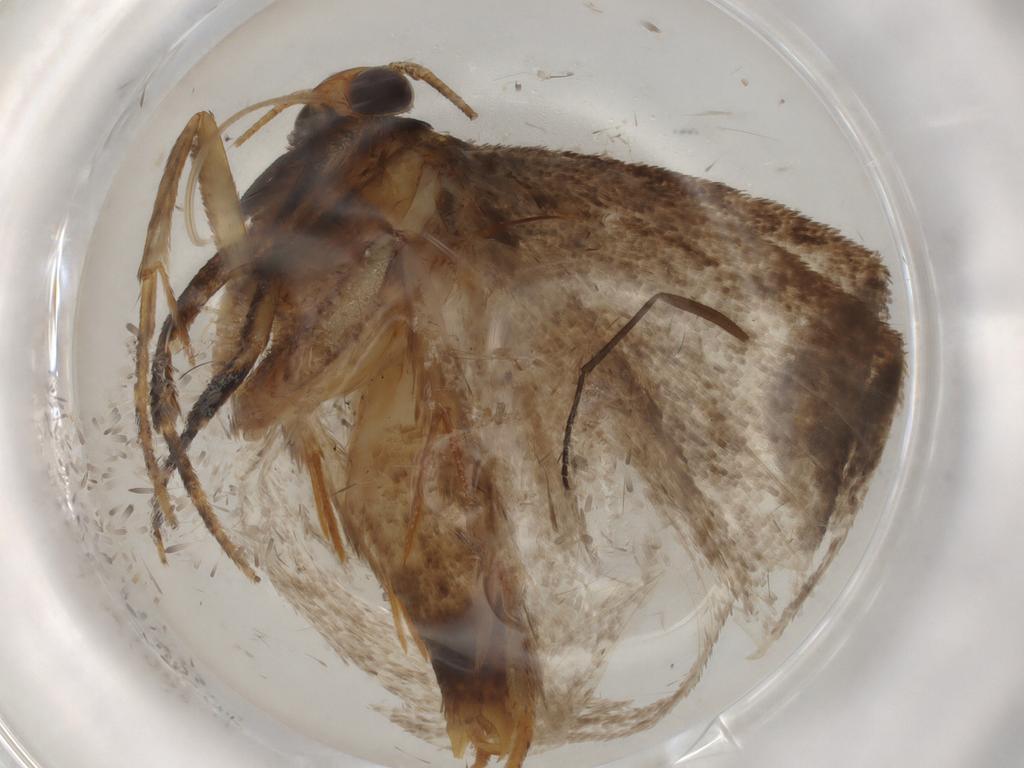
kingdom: Animalia
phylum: Arthropoda
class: Insecta
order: Lepidoptera
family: Oecophoridae
